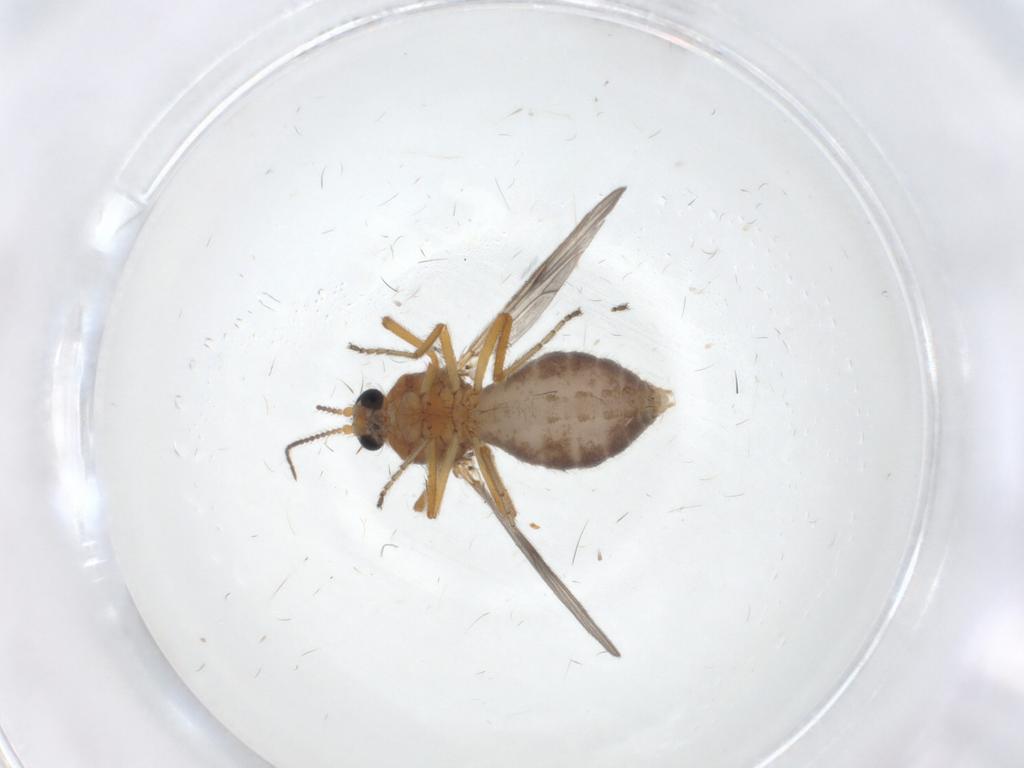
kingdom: Animalia
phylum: Arthropoda
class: Insecta
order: Diptera
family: Ceratopogonidae
